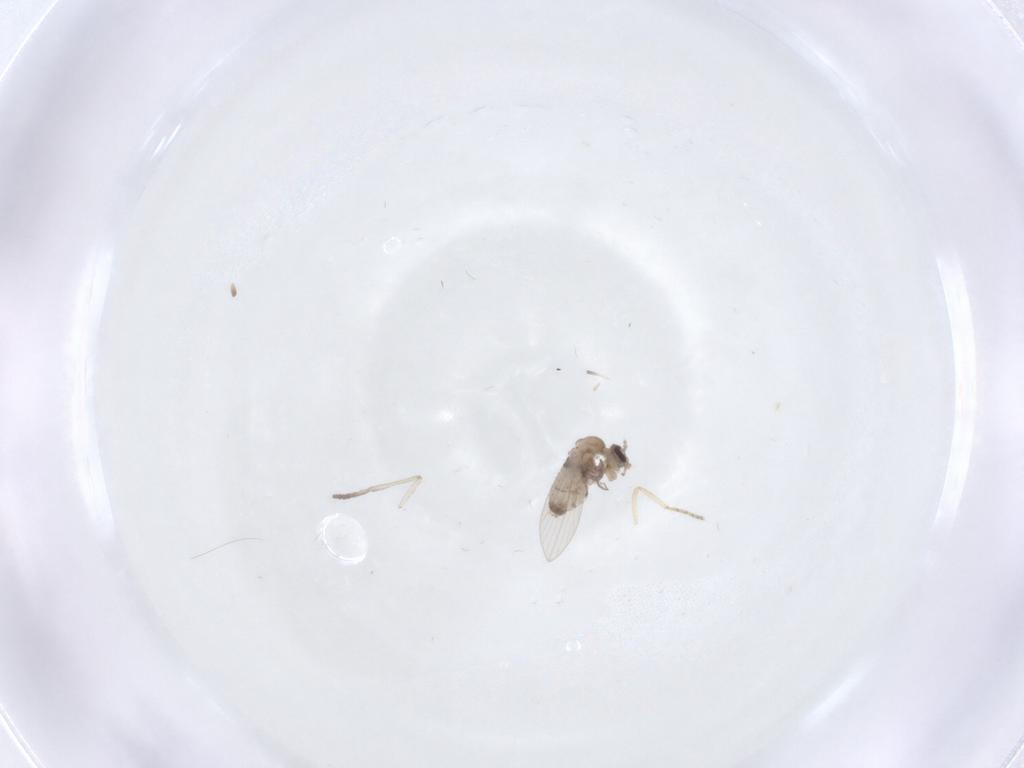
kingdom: Animalia
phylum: Arthropoda
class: Insecta
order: Diptera
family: Psychodidae
